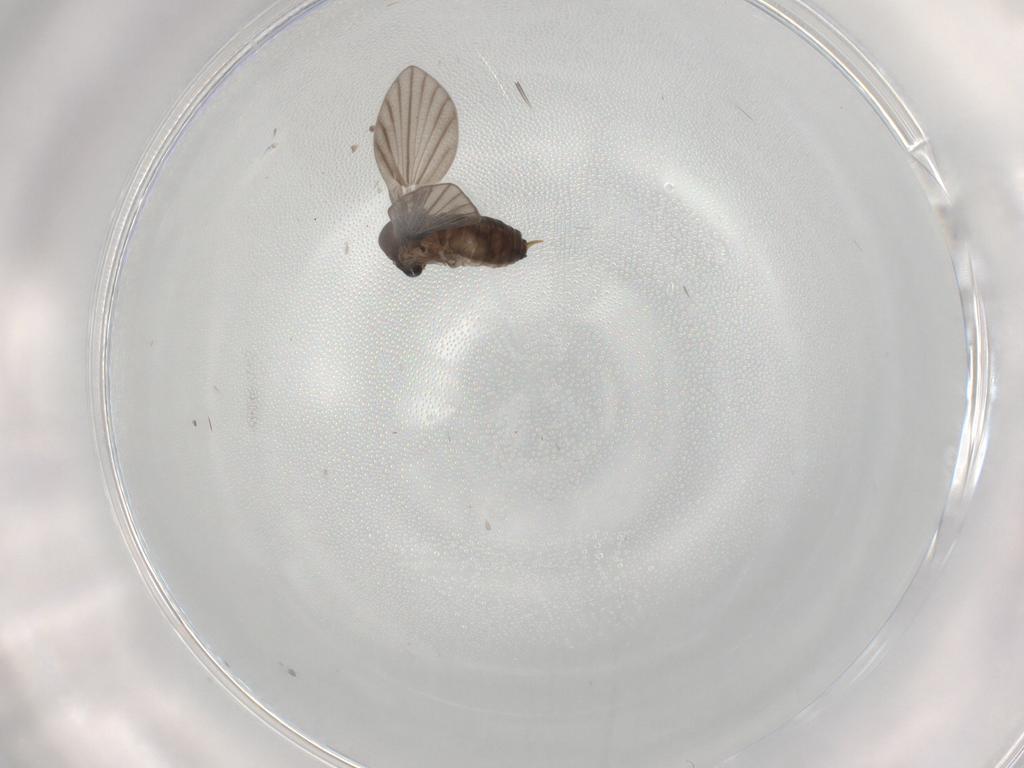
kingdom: Animalia
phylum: Arthropoda
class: Insecta
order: Diptera
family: Psychodidae
